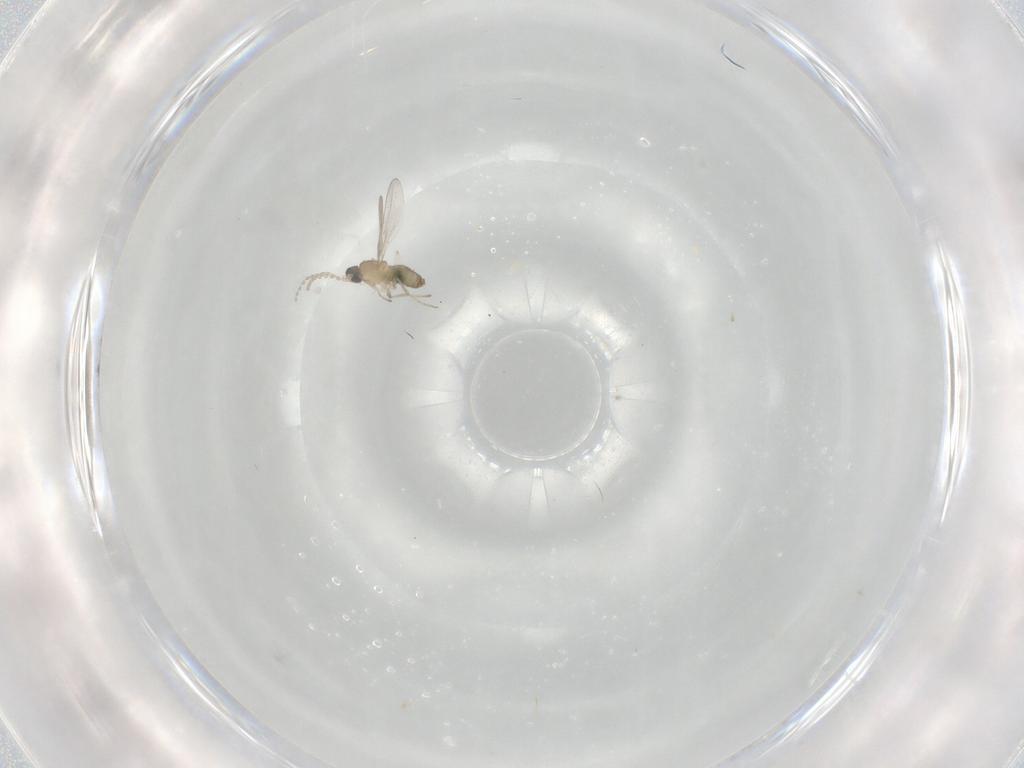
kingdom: Animalia
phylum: Arthropoda
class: Insecta
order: Diptera
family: Cecidomyiidae
